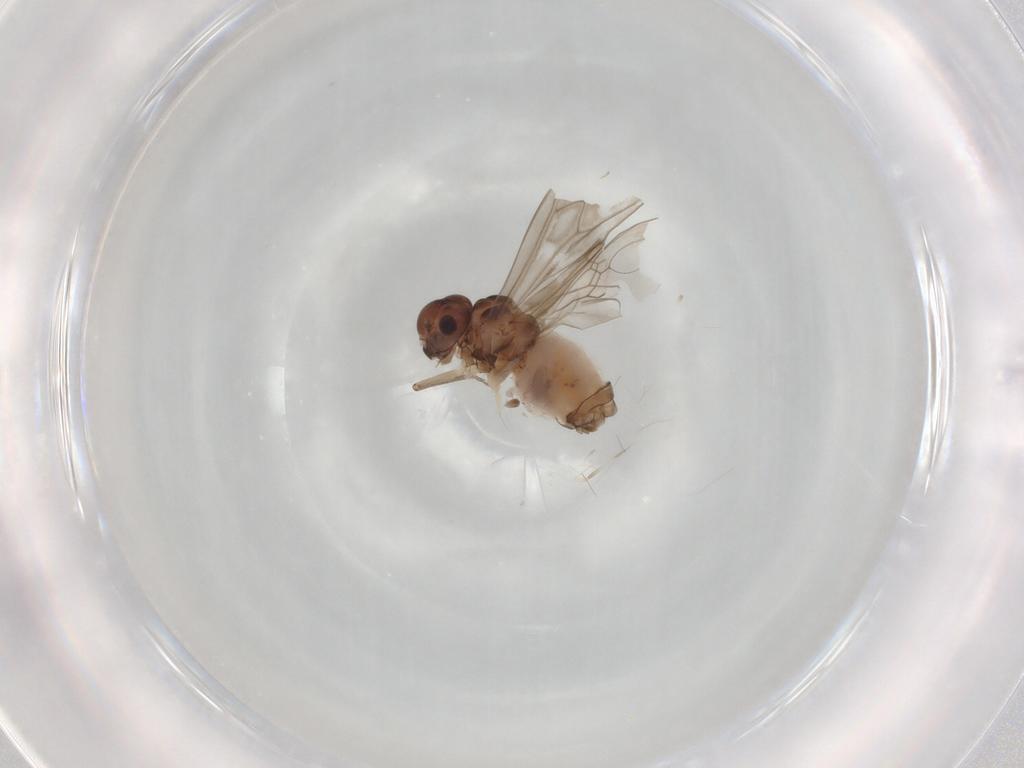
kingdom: Animalia
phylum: Arthropoda
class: Insecta
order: Psocodea
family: Peripsocidae
